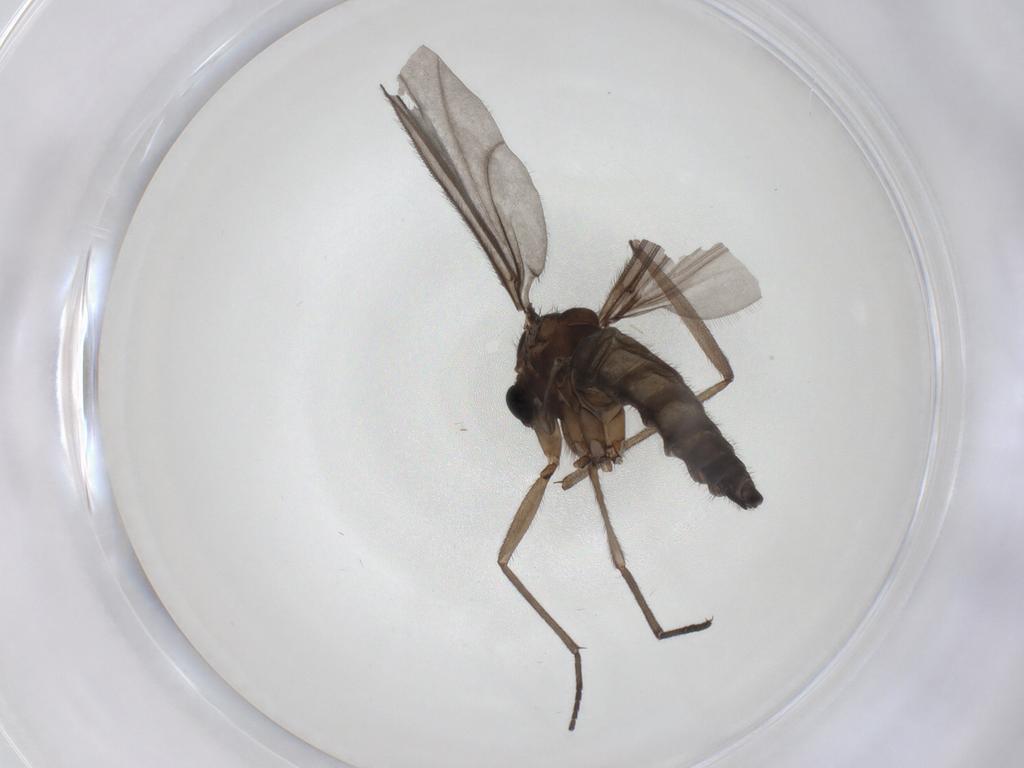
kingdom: Animalia
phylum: Arthropoda
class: Insecta
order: Diptera
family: Sciaridae
